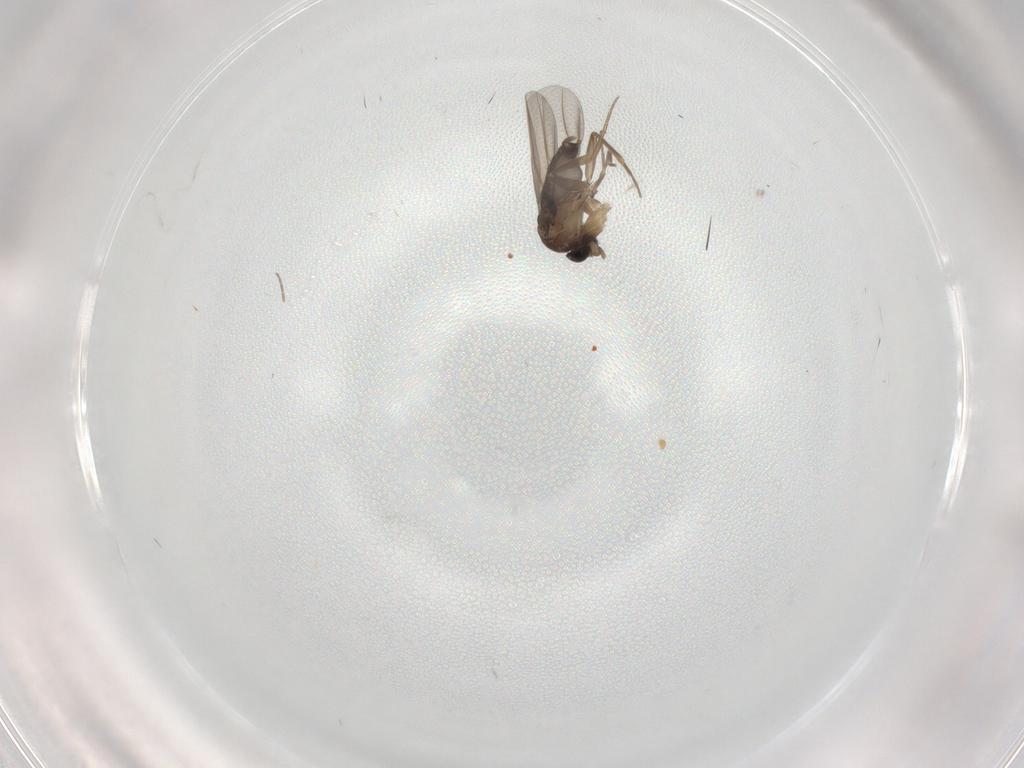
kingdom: Animalia
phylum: Arthropoda
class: Insecta
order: Diptera
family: Phoridae
